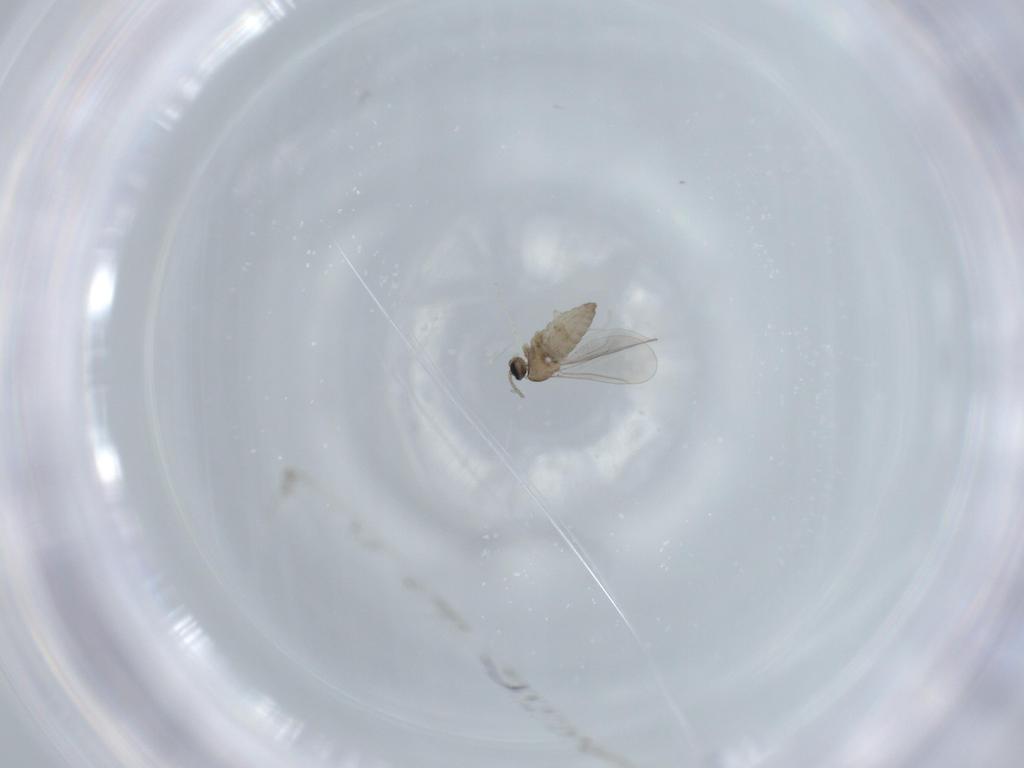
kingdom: Animalia
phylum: Arthropoda
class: Insecta
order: Diptera
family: Cecidomyiidae
